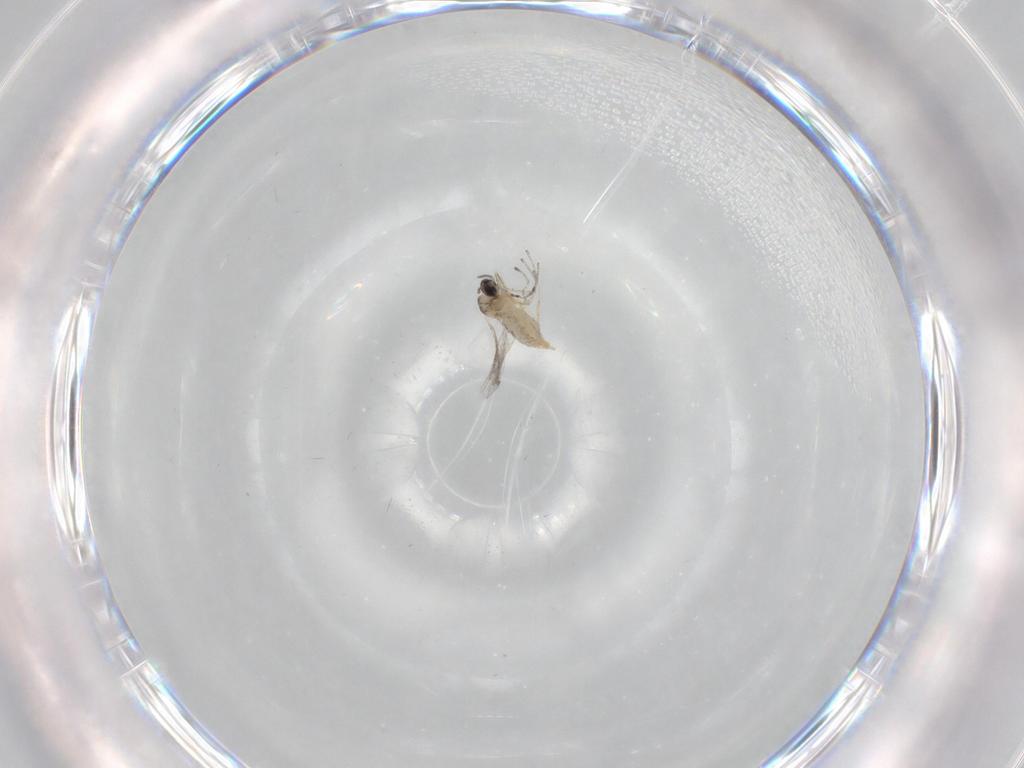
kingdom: Animalia
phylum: Arthropoda
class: Insecta
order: Diptera
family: Cecidomyiidae
